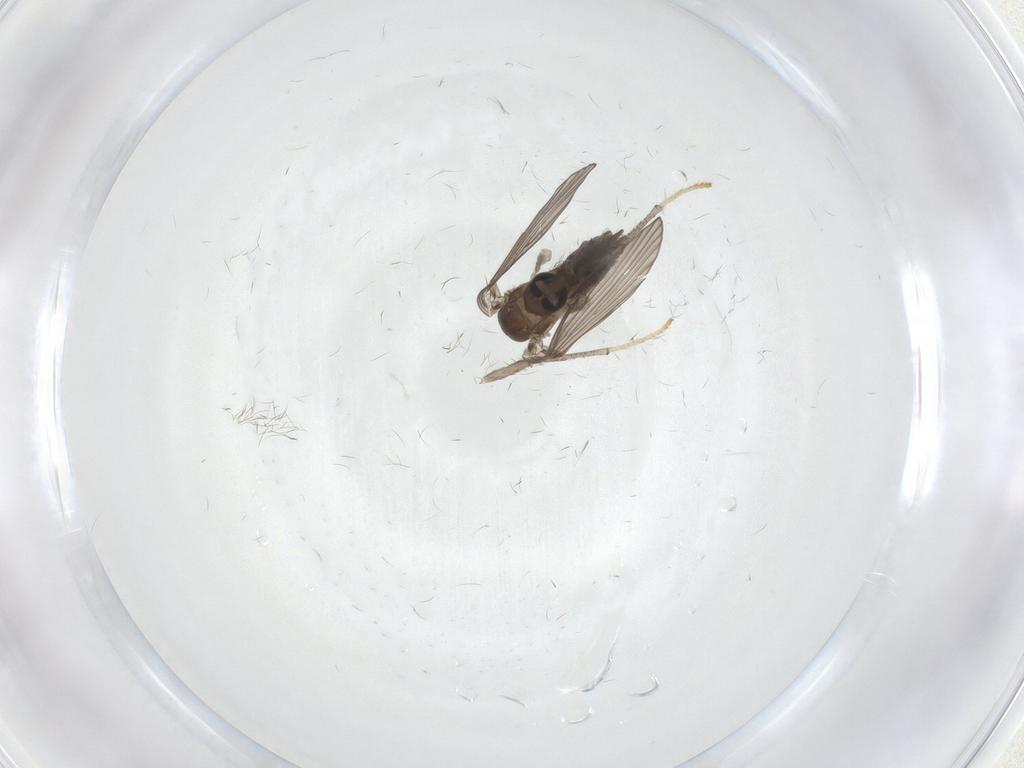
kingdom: Animalia
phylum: Arthropoda
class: Insecta
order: Diptera
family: Psychodidae
